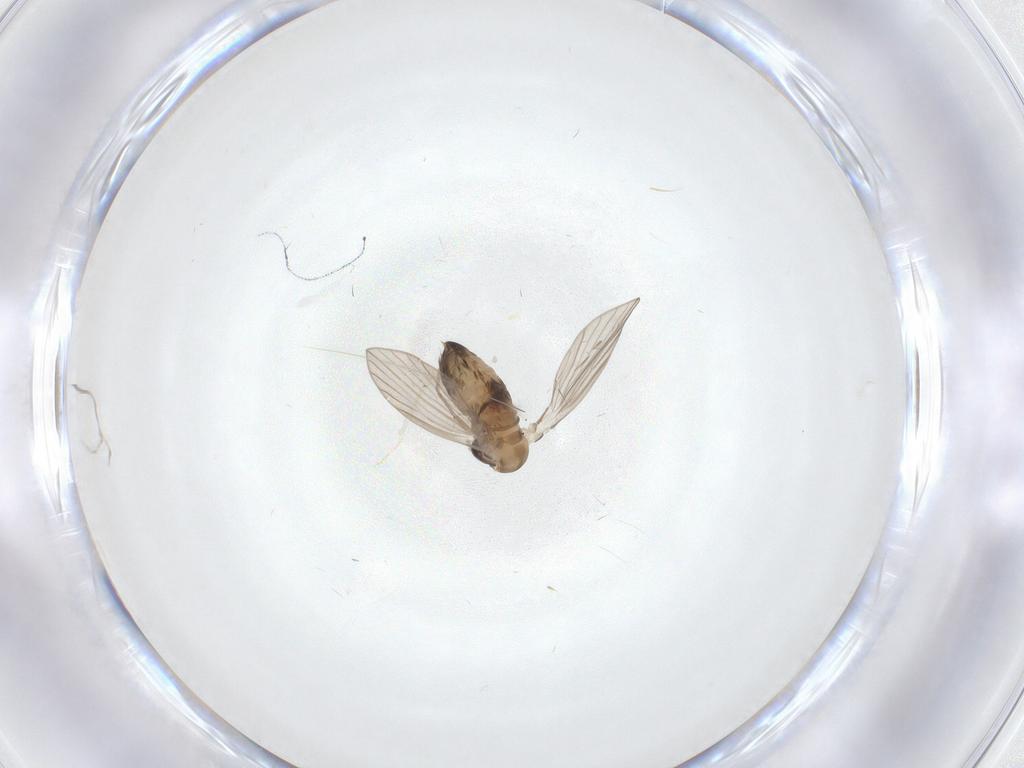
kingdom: Animalia
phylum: Arthropoda
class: Insecta
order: Diptera
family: Psychodidae
